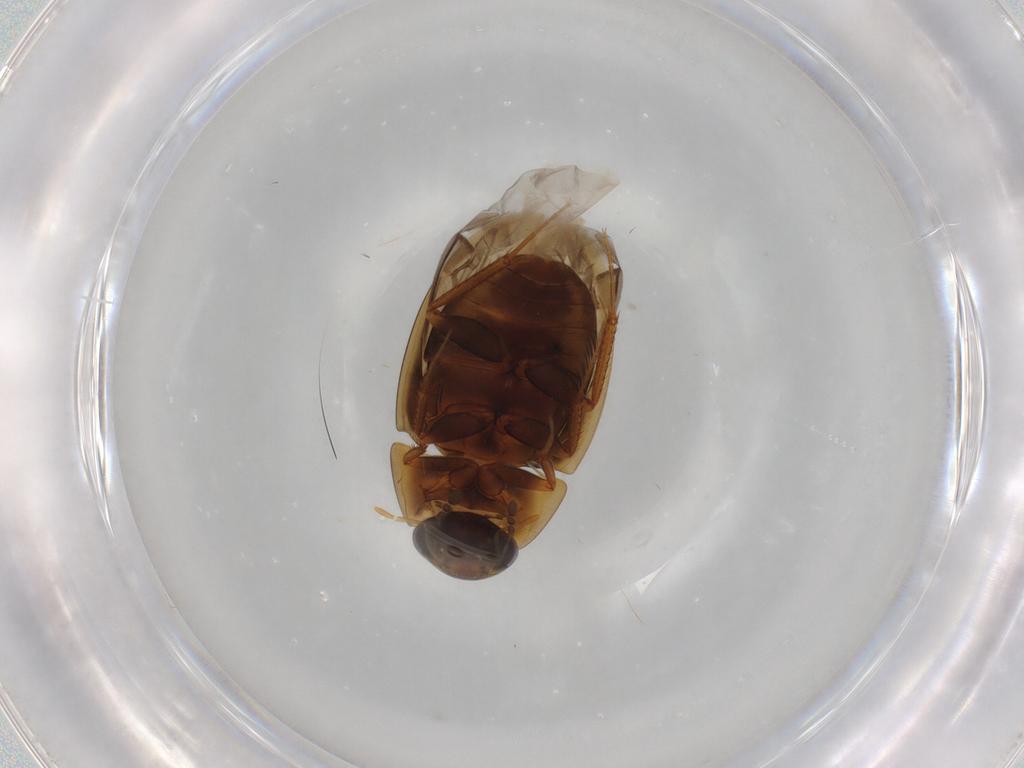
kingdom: Animalia
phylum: Arthropoda
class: Insecta
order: Coleoptera
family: Hydrophilidae
